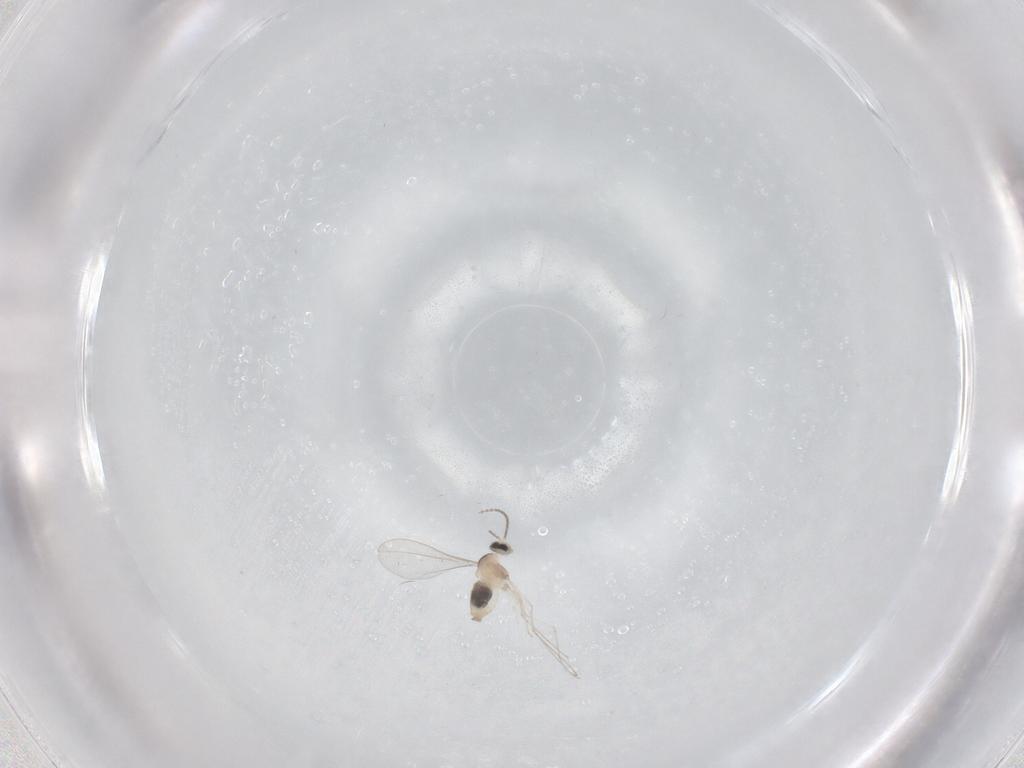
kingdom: Animalia
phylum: Arthropoda
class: Insecta
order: Diptera
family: Cecidomyiidae
